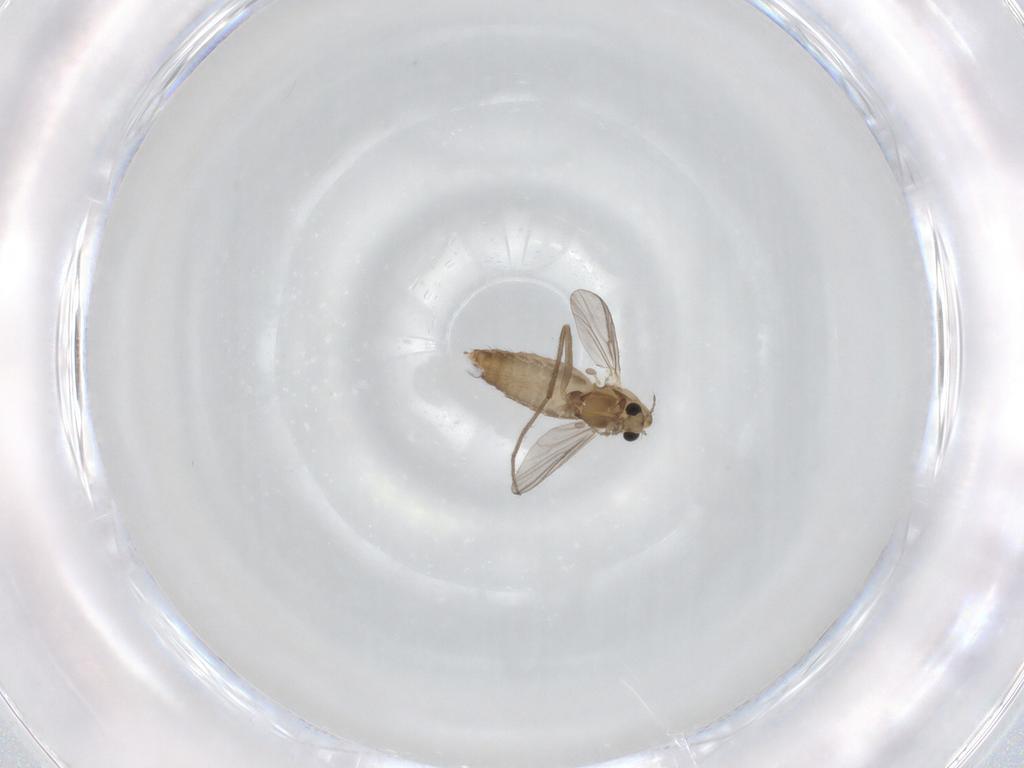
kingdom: Animalia
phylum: Arthropoda
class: Insecta
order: Diptera
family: Chironomidae
